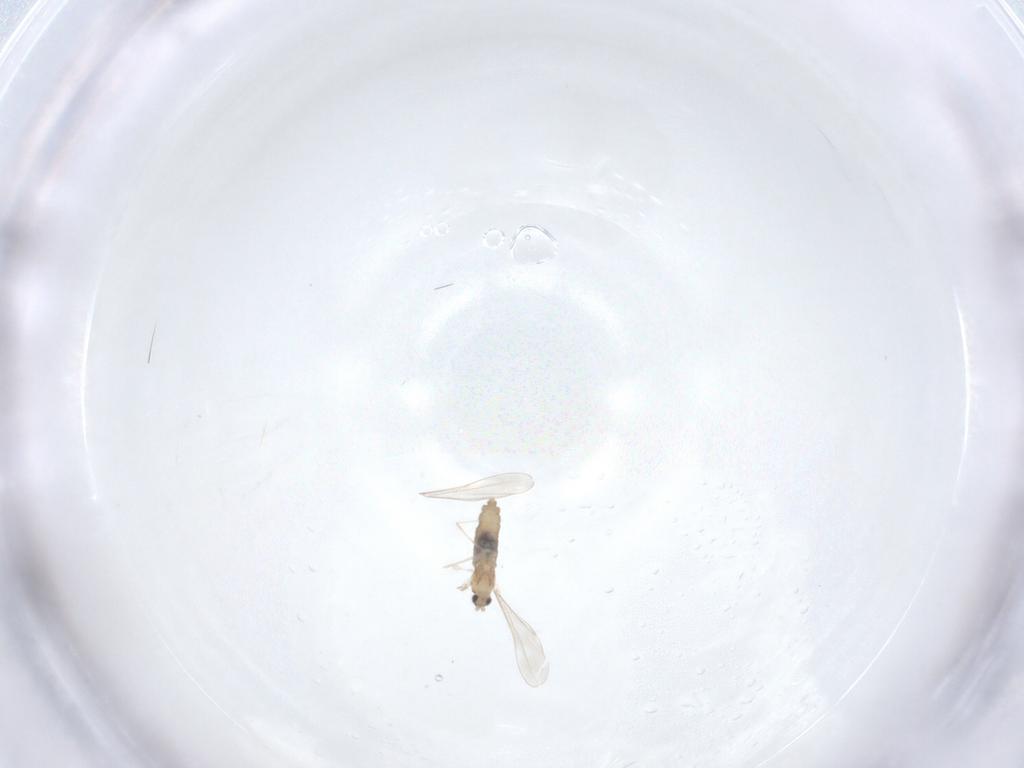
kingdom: Animalia
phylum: Arthropoda
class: Insecta
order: Diptera
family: Cecidomyiidae
